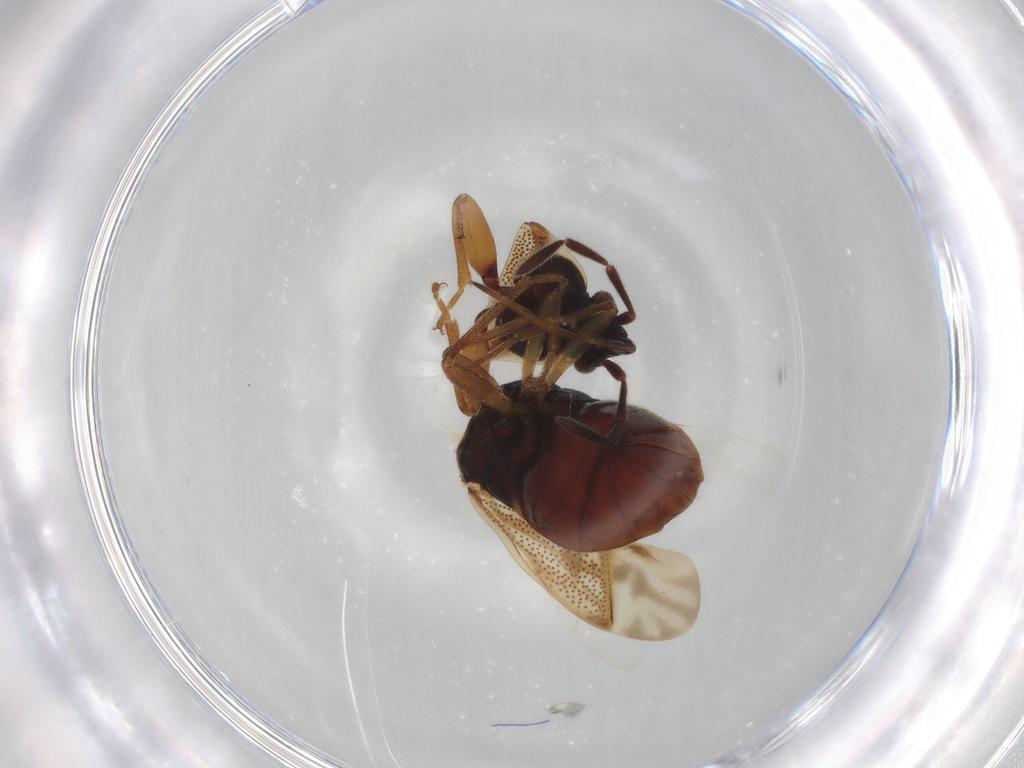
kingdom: Animalia
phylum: Arthropoda
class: Insecta
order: Hemiptera
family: Rhyparochromidae
